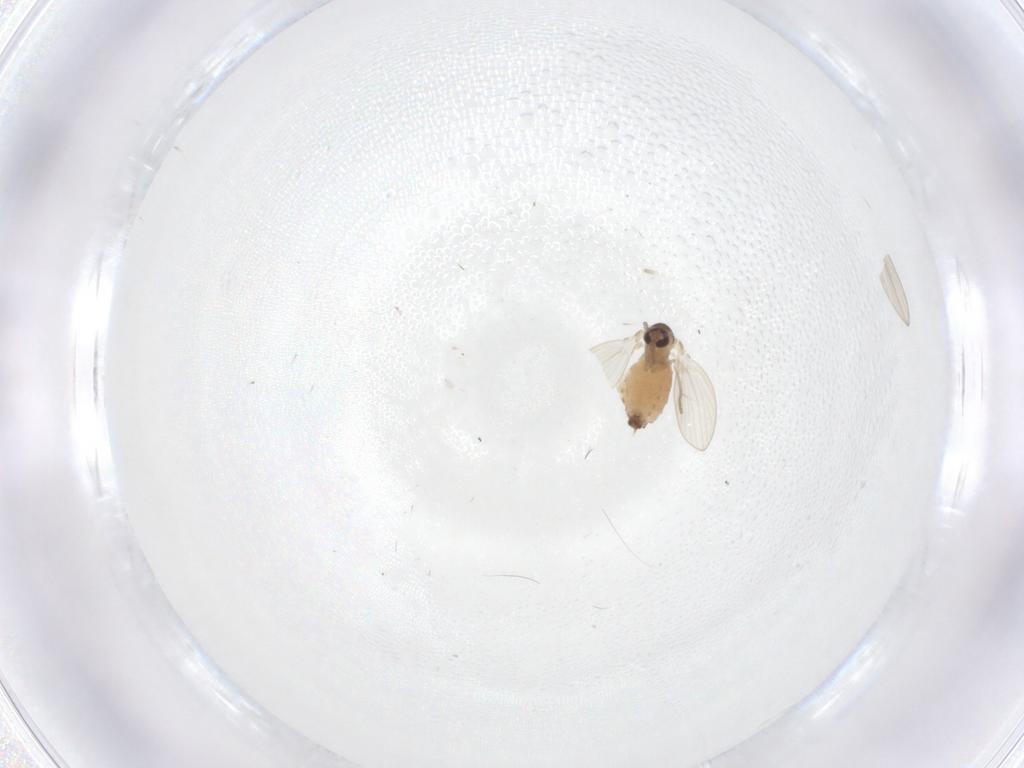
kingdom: Animalia
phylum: Arthropoda
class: Insecta
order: Diptera
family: Psychodidae
